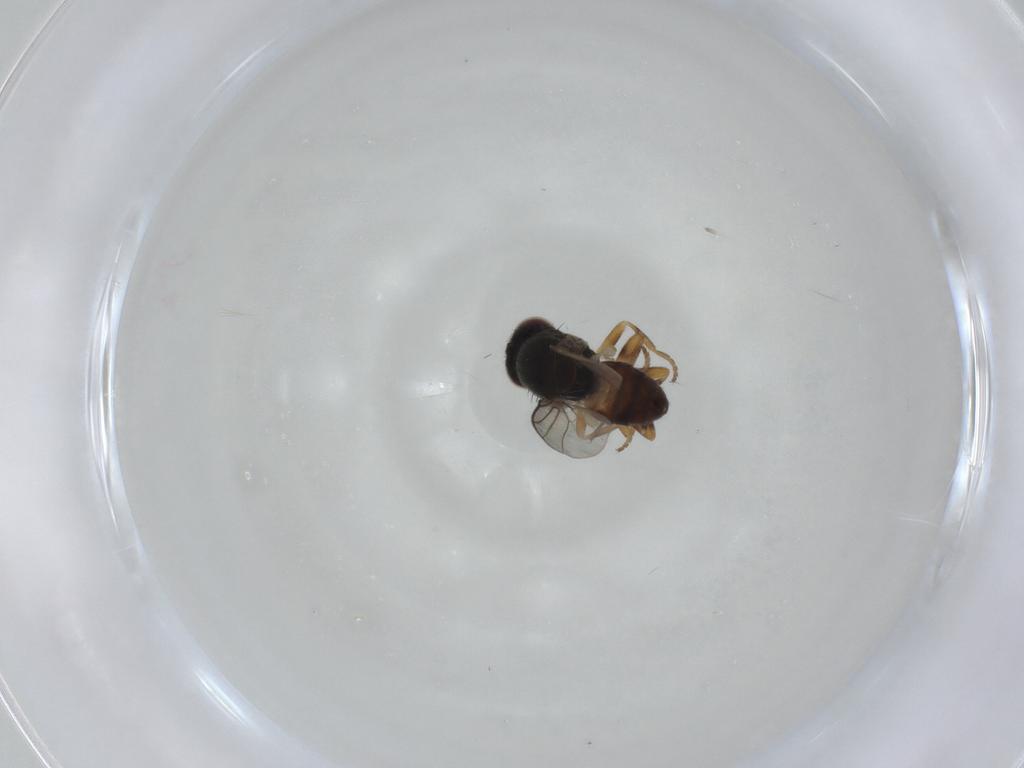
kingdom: Animalia
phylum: Arthropoda
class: Insecta
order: Diptera
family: Chloropidae
